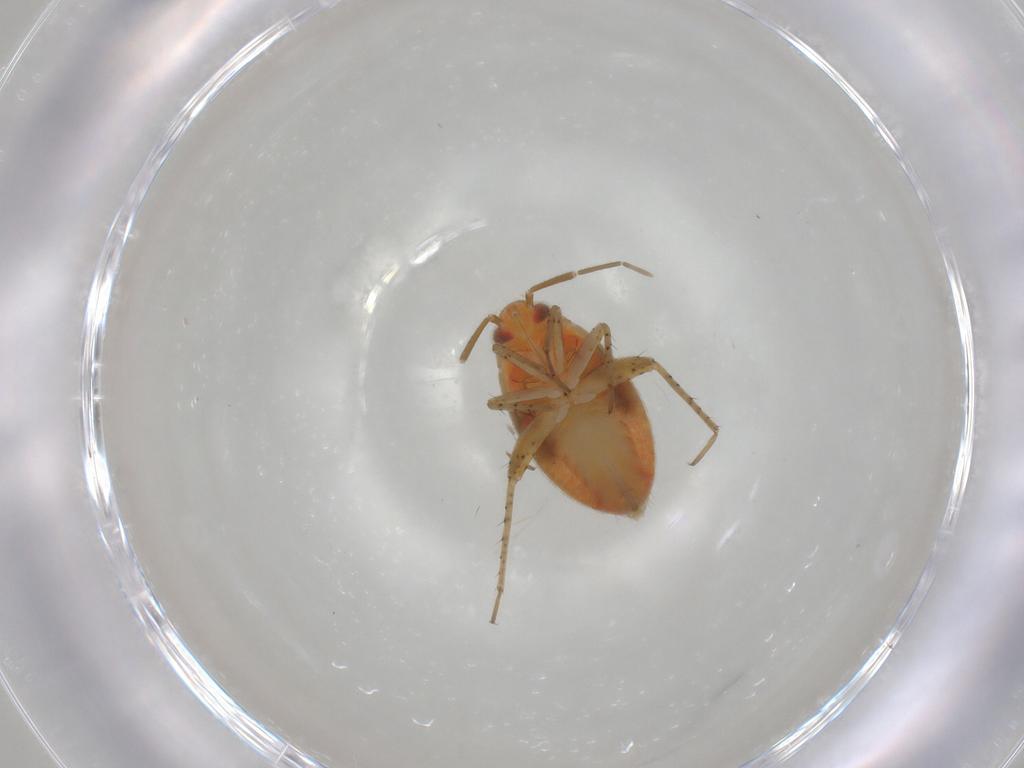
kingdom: Animalia
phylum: Arthropoda
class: Insecta
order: Hemiptera
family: Miridae
